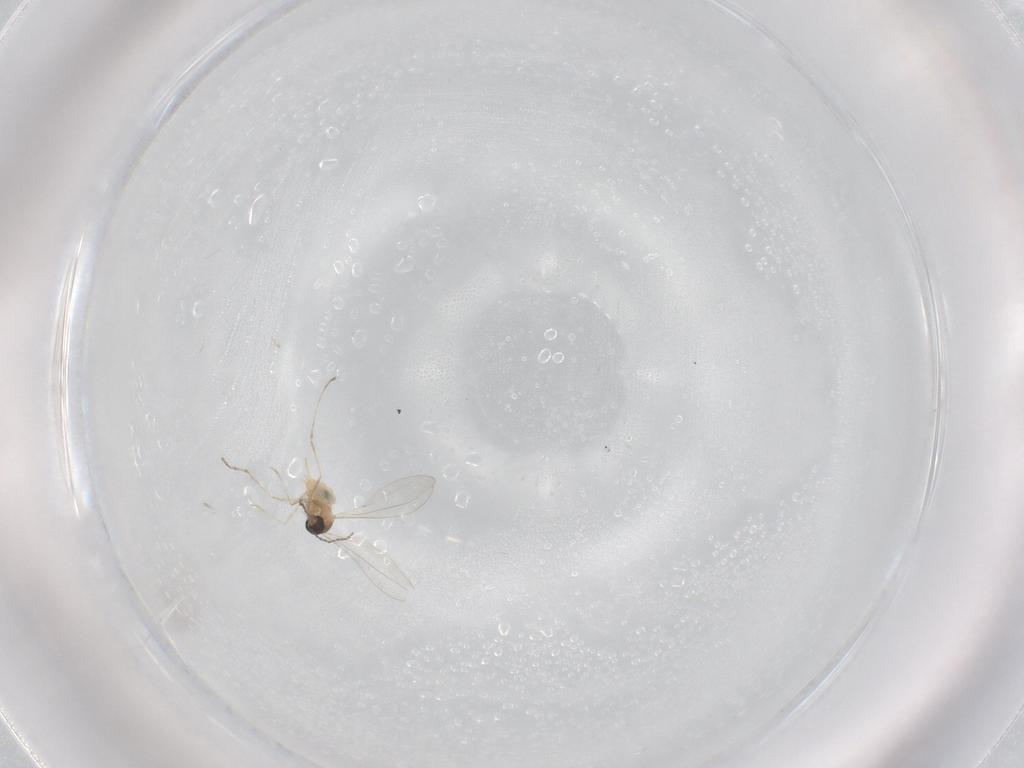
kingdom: Animalia
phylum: Arthropoda
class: Insecta
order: Diptera
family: Cecidomyiidae
